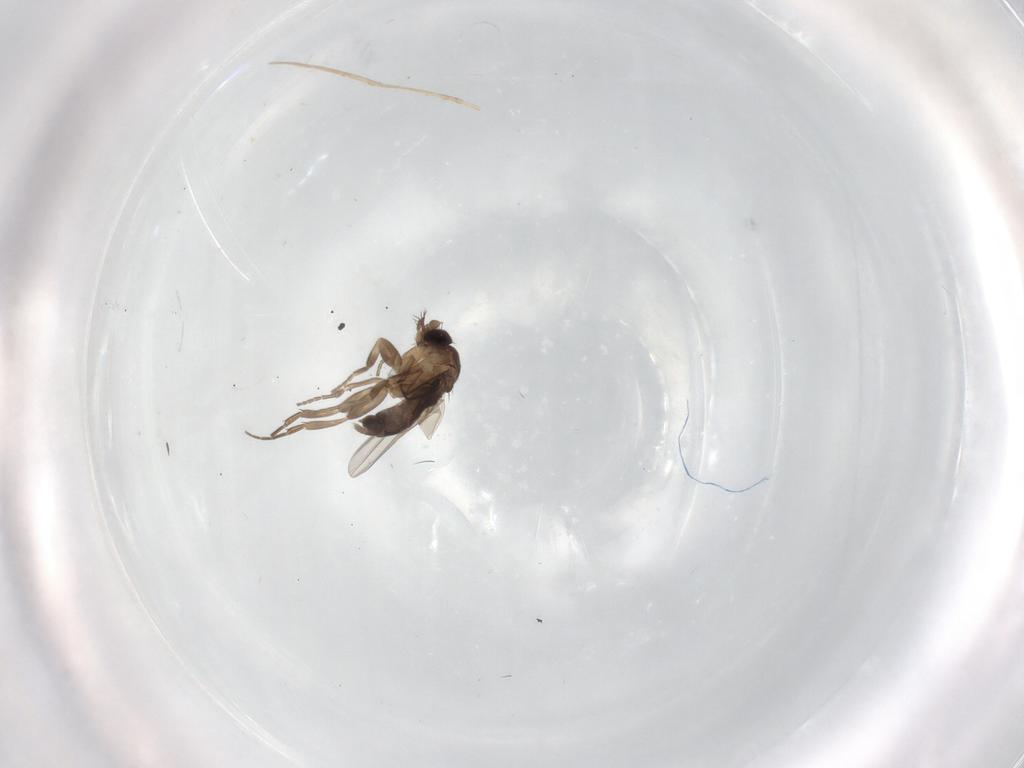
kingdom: Animalia
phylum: Arthropoda
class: Insecta
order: Diptera
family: Phoridae
